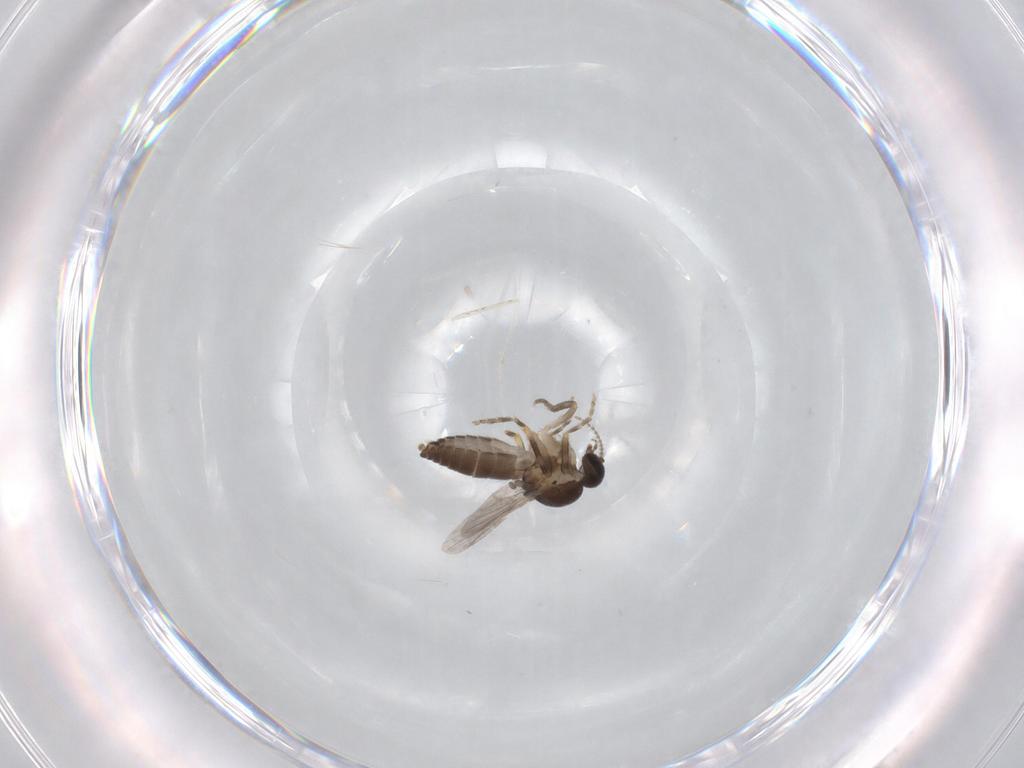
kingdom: Animalia
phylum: Arthropoda
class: Insecta
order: Diptera
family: Ceratopogonidae
